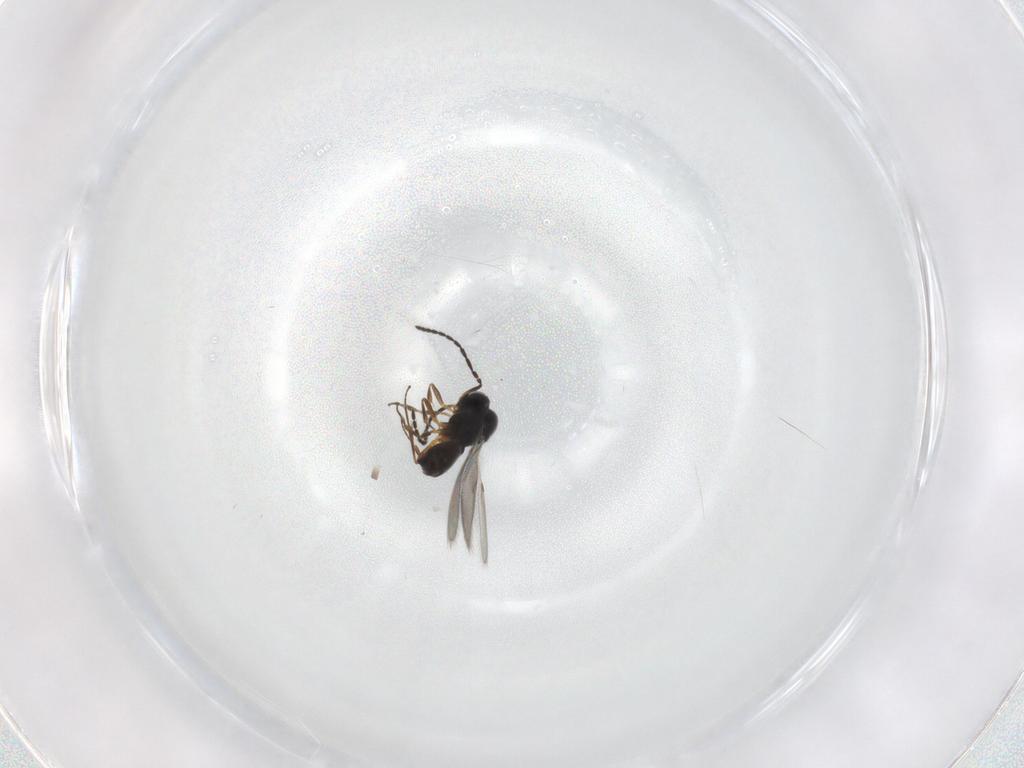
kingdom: Animalia
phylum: Arthropoda
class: Insecta
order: Hymenoptera
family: Scelionidae
